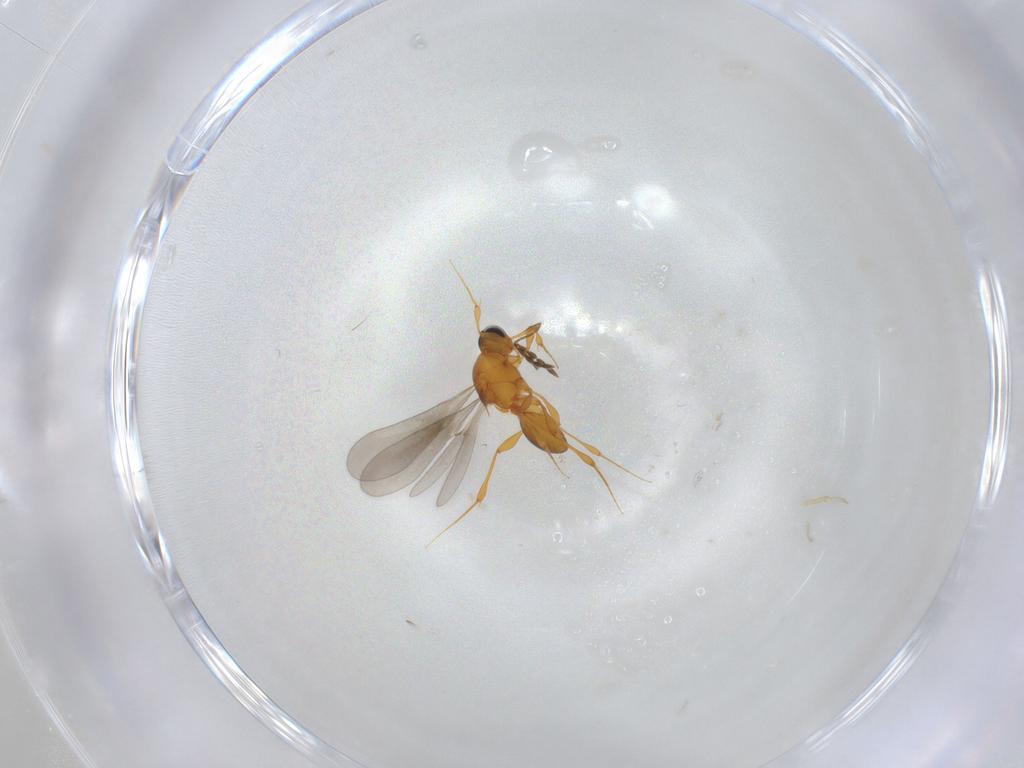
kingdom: Animalia
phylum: Arthropoda
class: Insecta
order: Hymenoptera
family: Platygastridae
